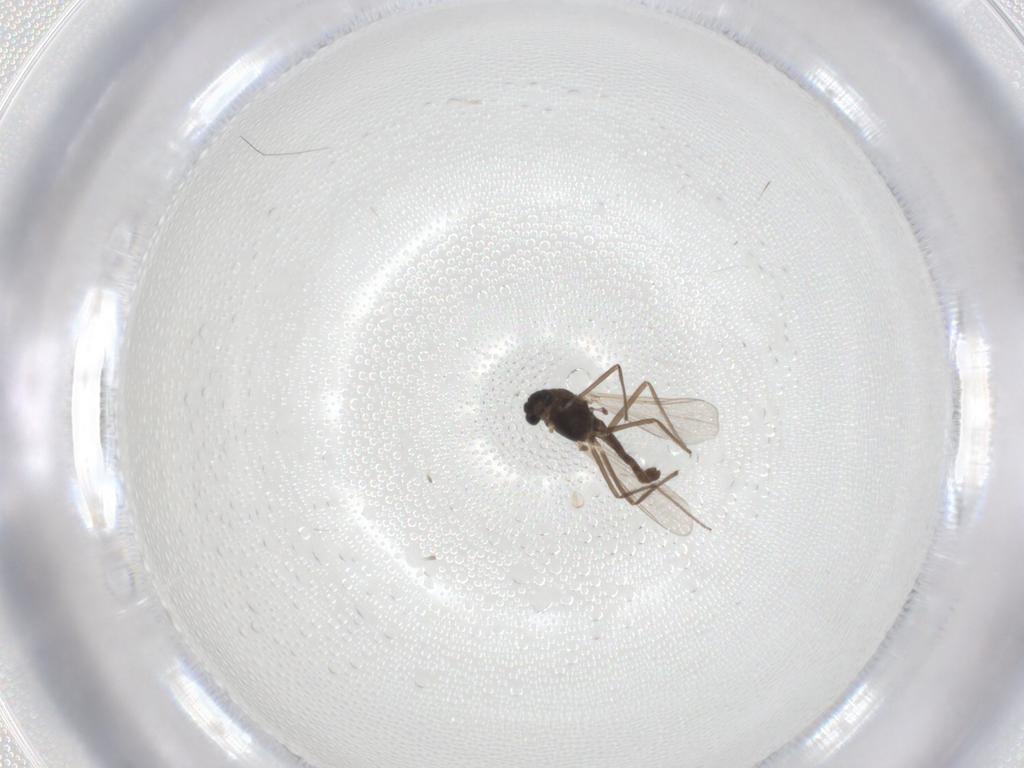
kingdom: Animalia
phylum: Arthropoda
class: Insecta
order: Diptera
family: Chironomidae
